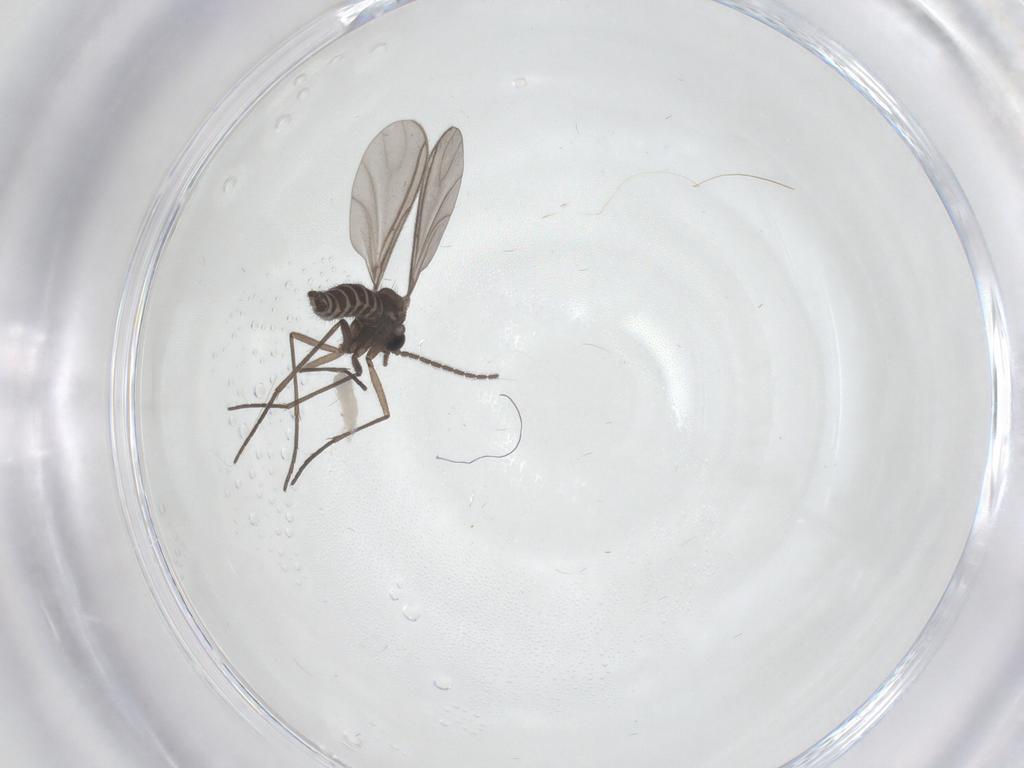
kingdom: Animalia
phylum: Arthropoda
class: Insecta
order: Diptera
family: Tipulidae
